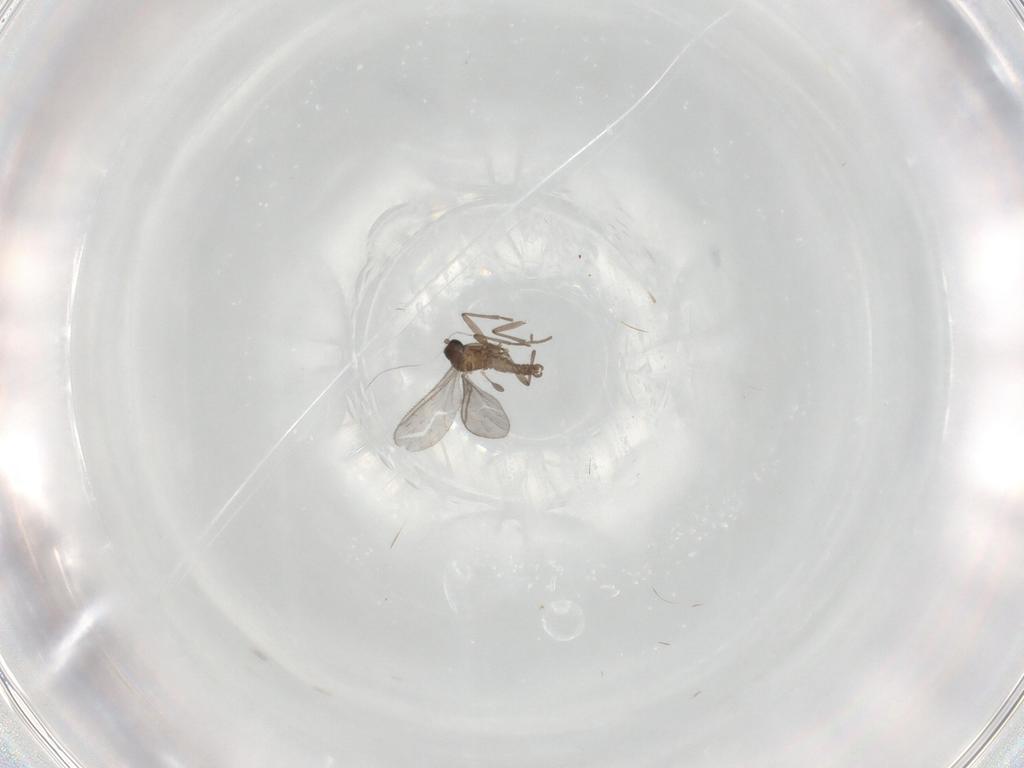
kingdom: Animalia
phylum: Arthropoda
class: Insecta
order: Diptera
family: Sciaridae
